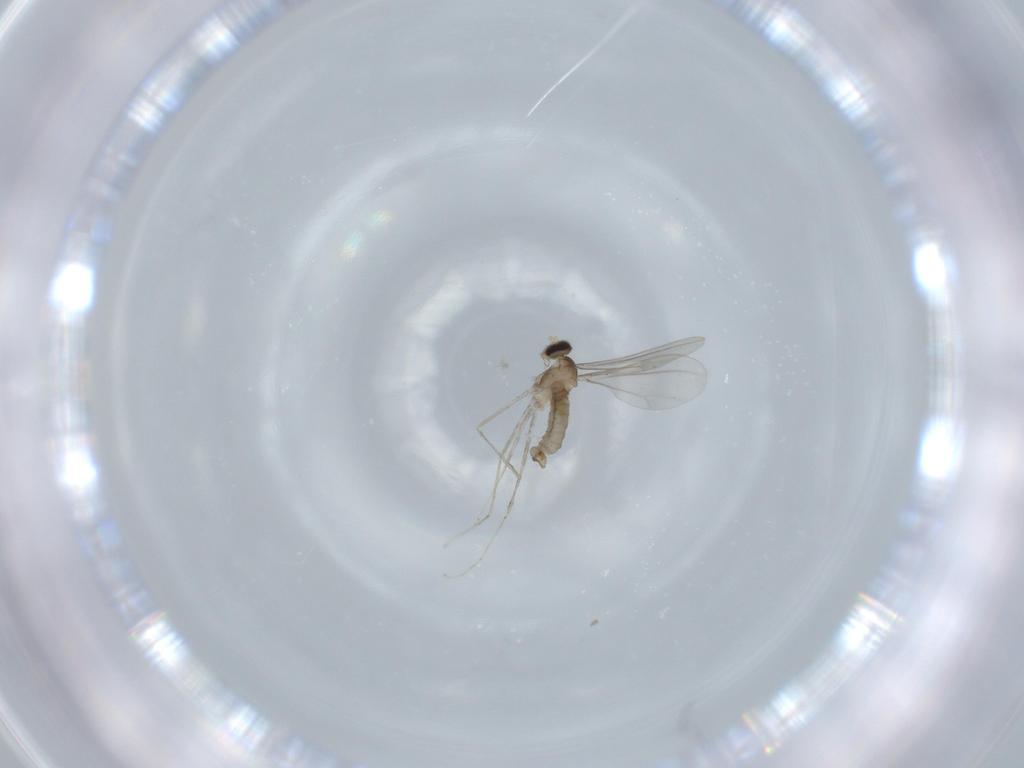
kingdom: Animalia
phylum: Arthropoda
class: Insecta
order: Diptera
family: Cecidomyiidae
